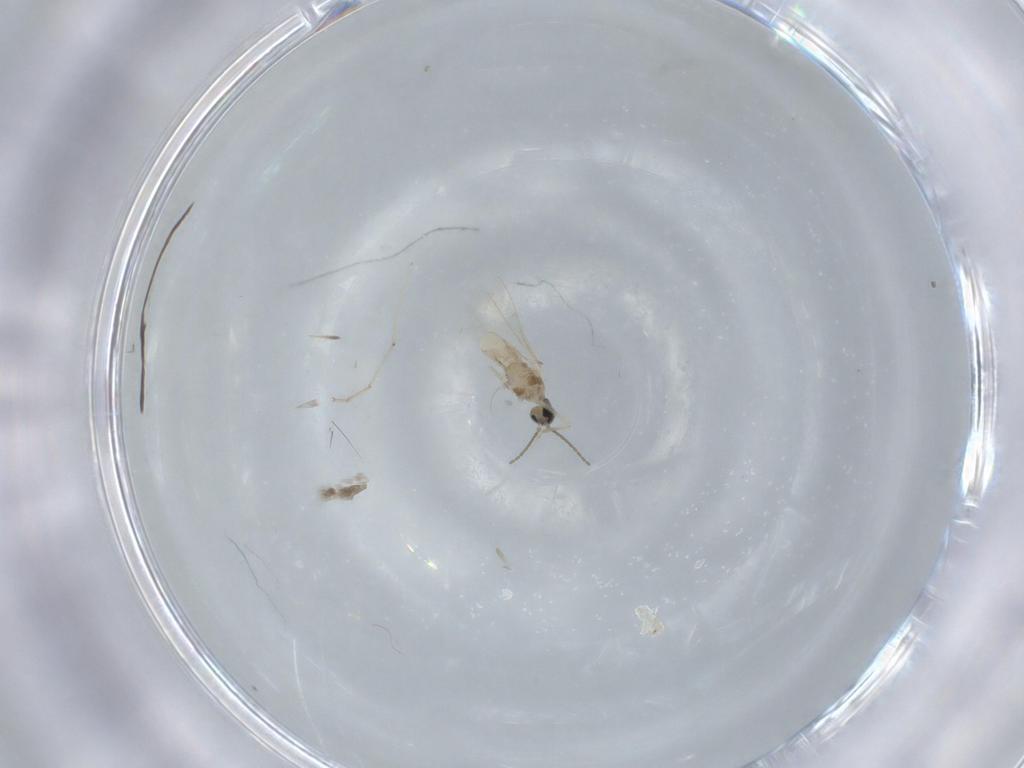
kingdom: Animalia
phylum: Arthropoda
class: Insecta
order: Diptera
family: Cecidomyiidae
